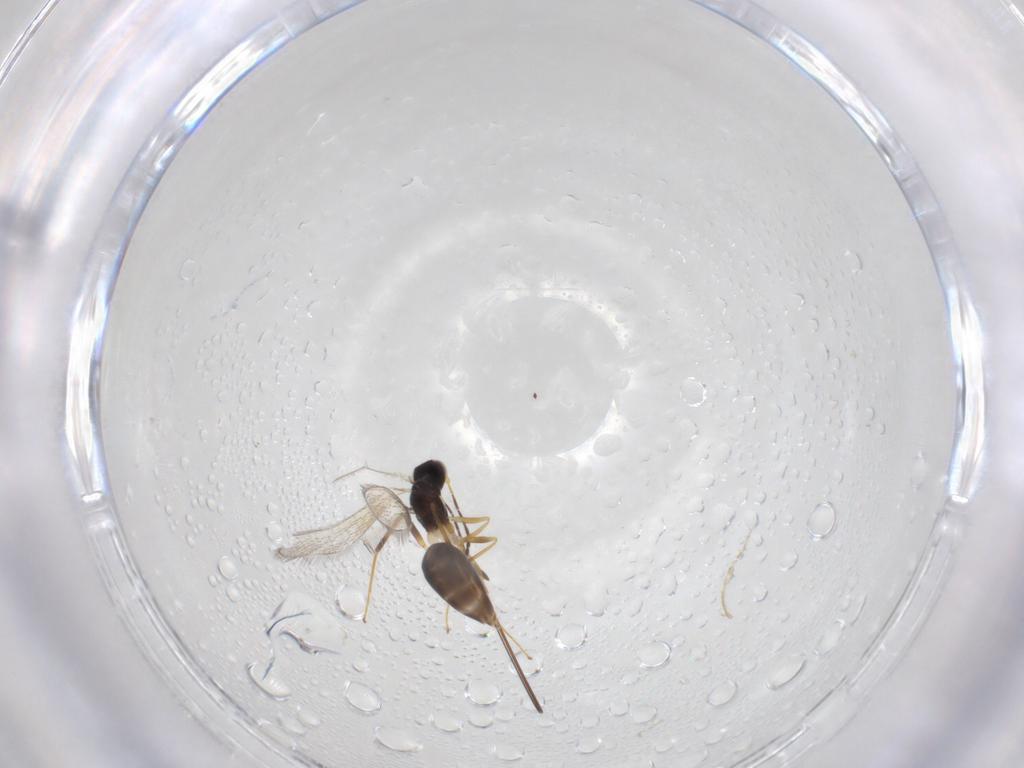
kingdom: Animalia
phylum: Arthropoda
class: Insecta
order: Hymenoptera
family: Mymaridae
